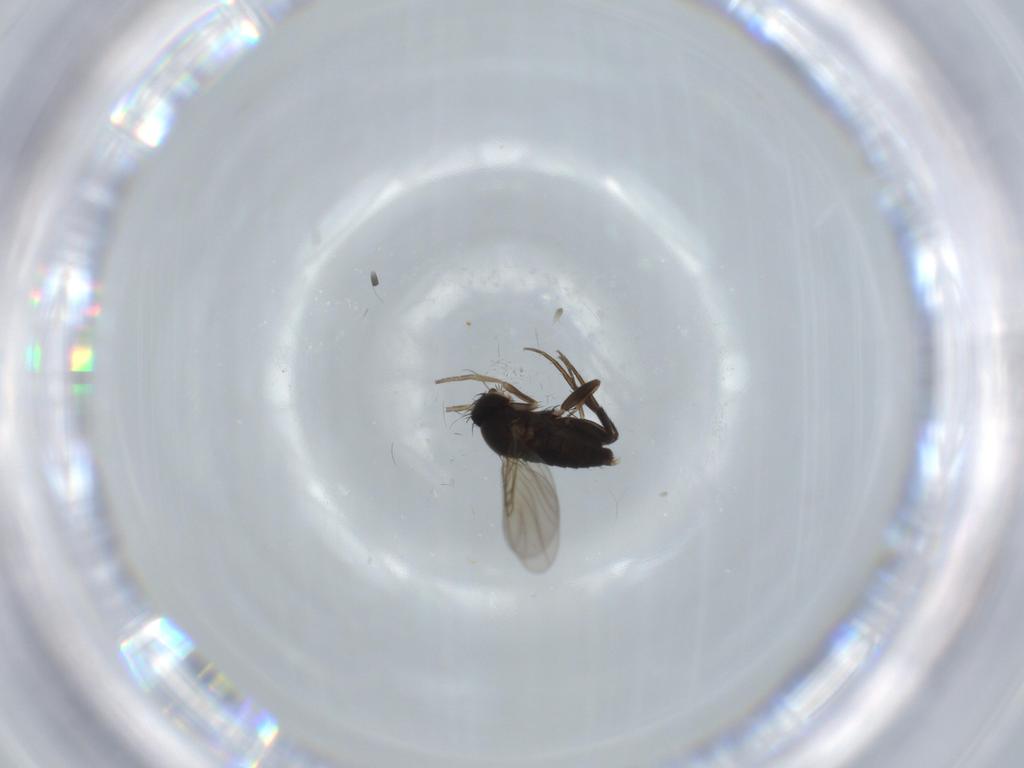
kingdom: Animalia
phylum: Arthropoda
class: Insecta
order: Diptera
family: Phoridae
